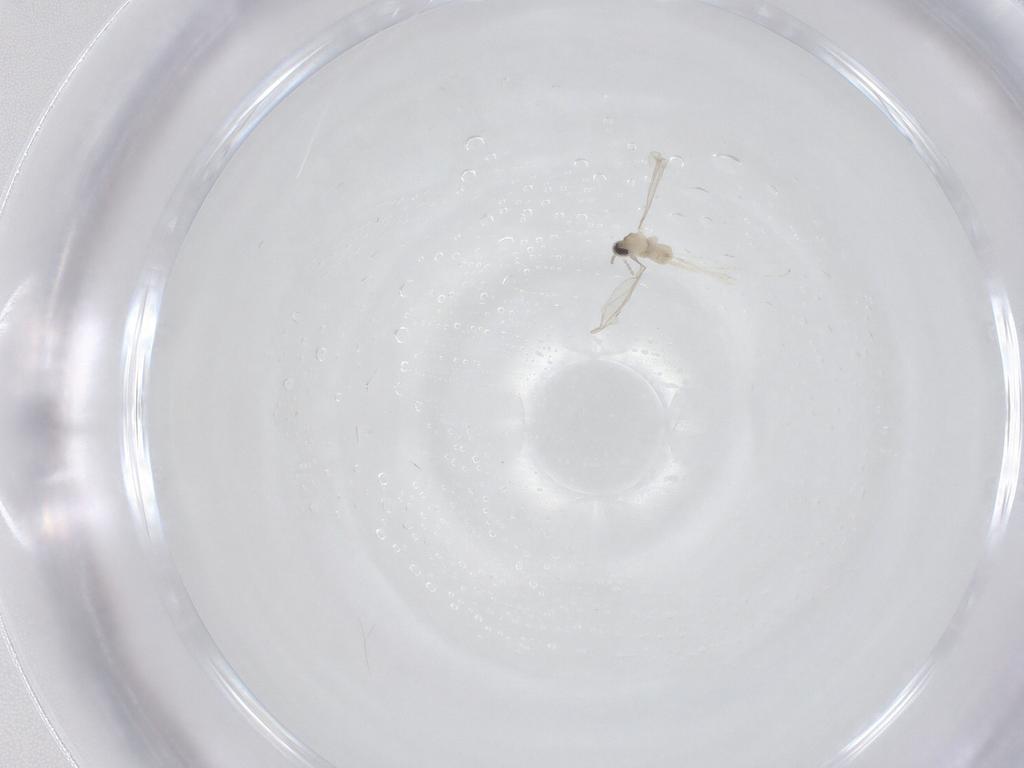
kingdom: Animalia
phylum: Arthropoda
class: Insecta
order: Diptera
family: Cecidomyiidae
